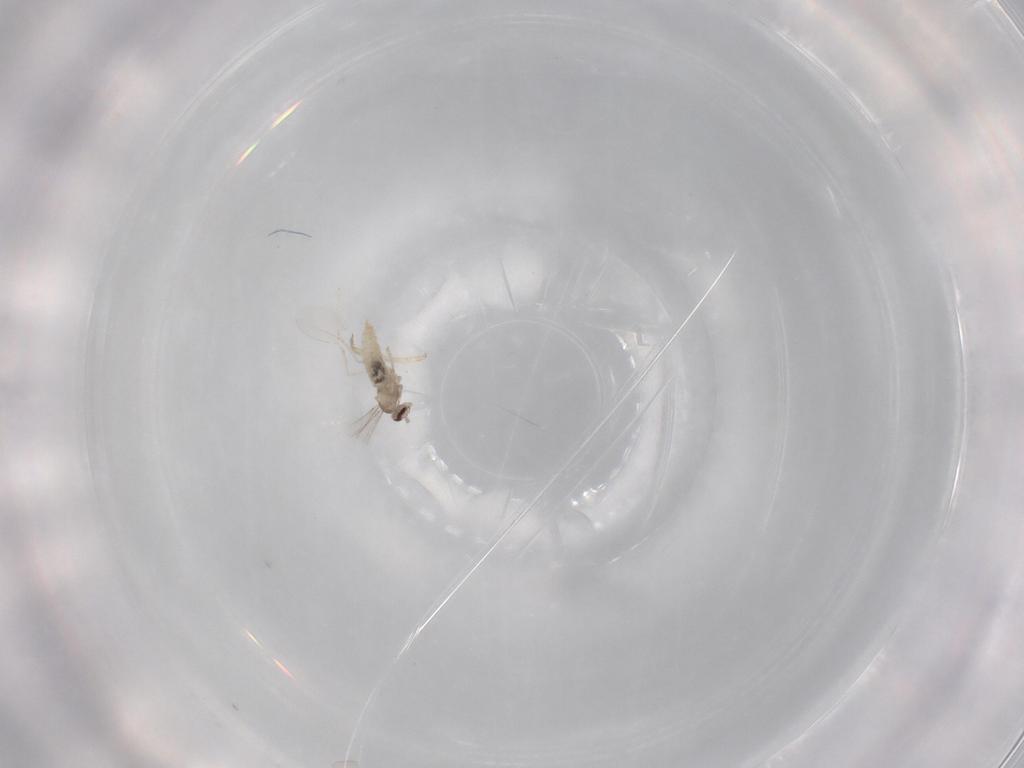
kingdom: Animalia
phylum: Arthropoda
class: Insecta
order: Diptera
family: Cecidomyiidae
